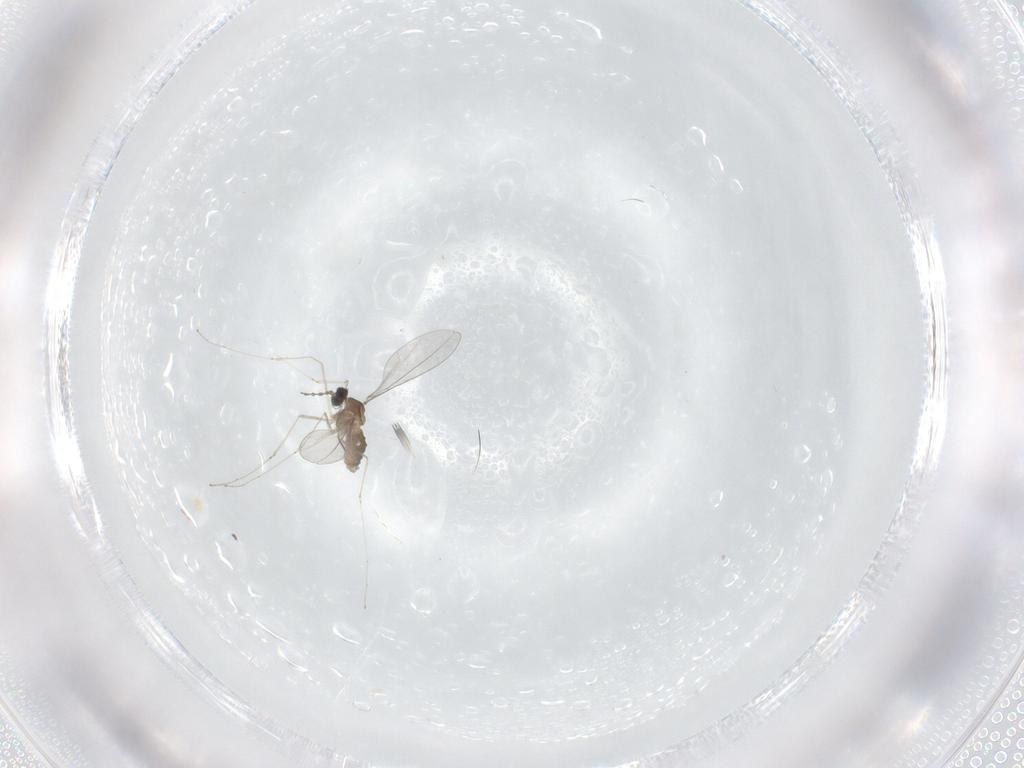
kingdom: Animalia
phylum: Arthropoda
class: Insecta
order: Diptera
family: Cecidomyiidae
